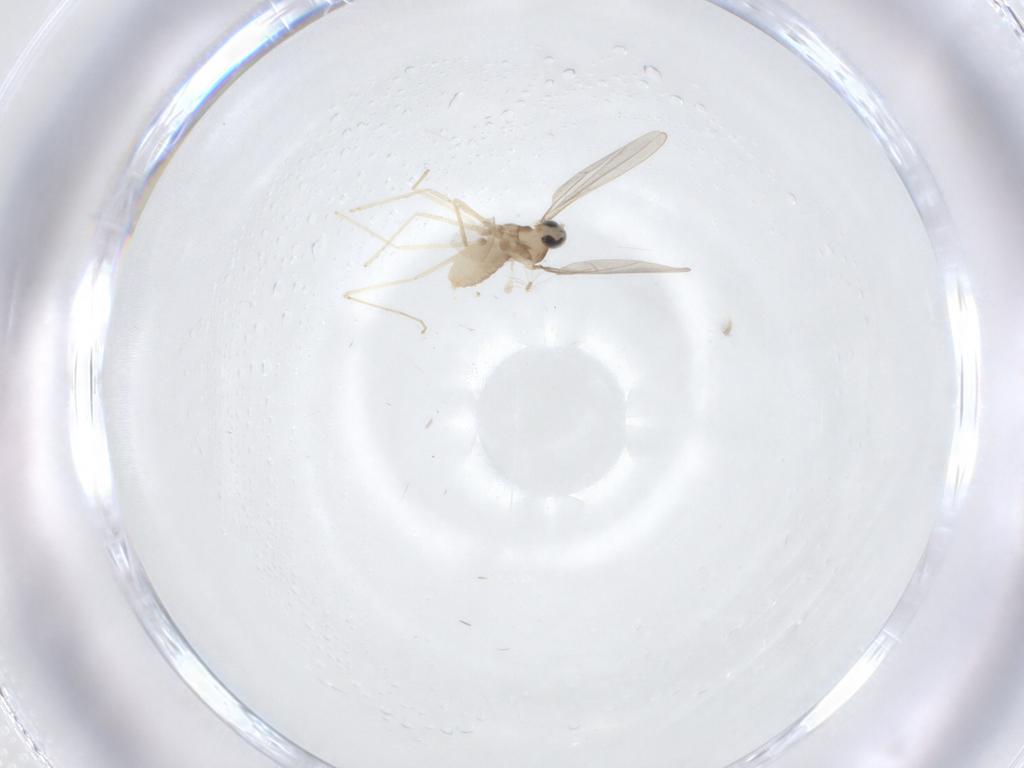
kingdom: Animalia
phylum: Arthropoda
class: Insecta
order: Diptera
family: Cecidomyiidae
